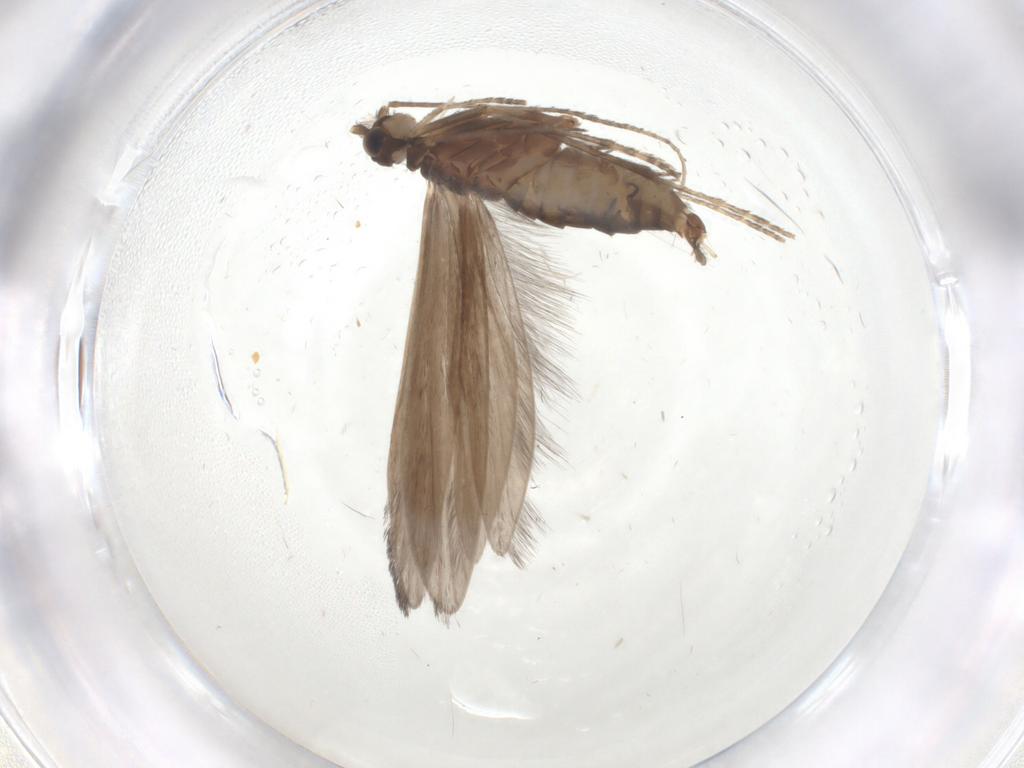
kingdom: Animalia
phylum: Arthropoda
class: Insecta
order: Trichoptera
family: Xiphocentronidae
